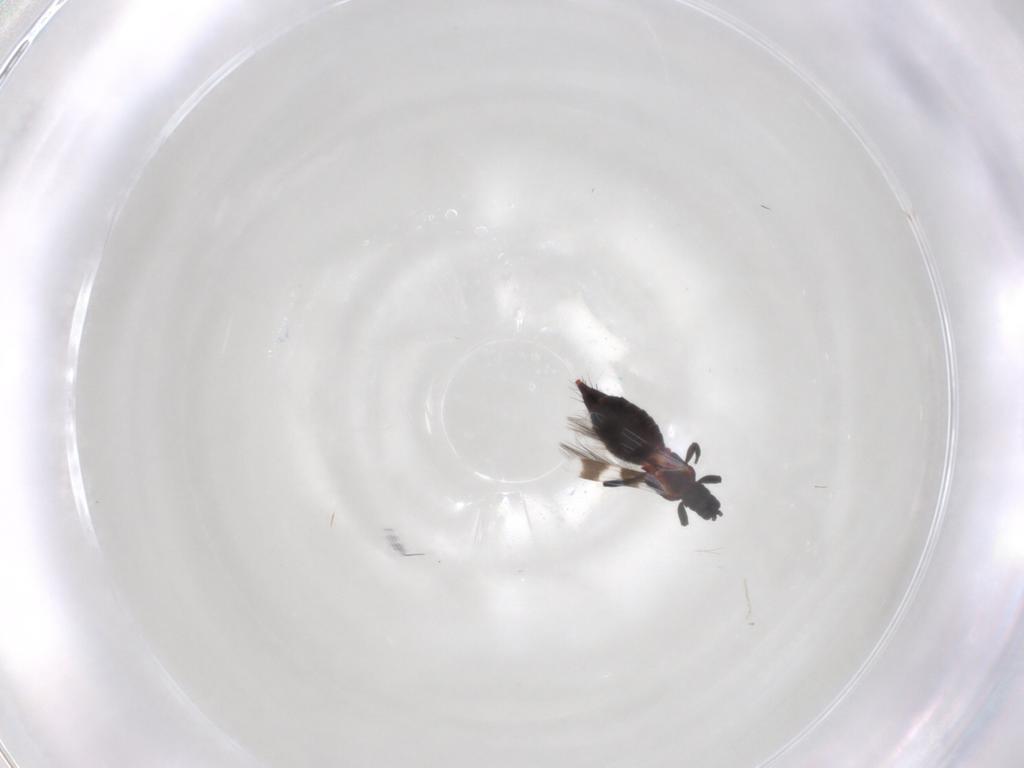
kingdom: Animalia
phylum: Arthropoda
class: Insecta
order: Thysanoptera
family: Aeolothripidae
